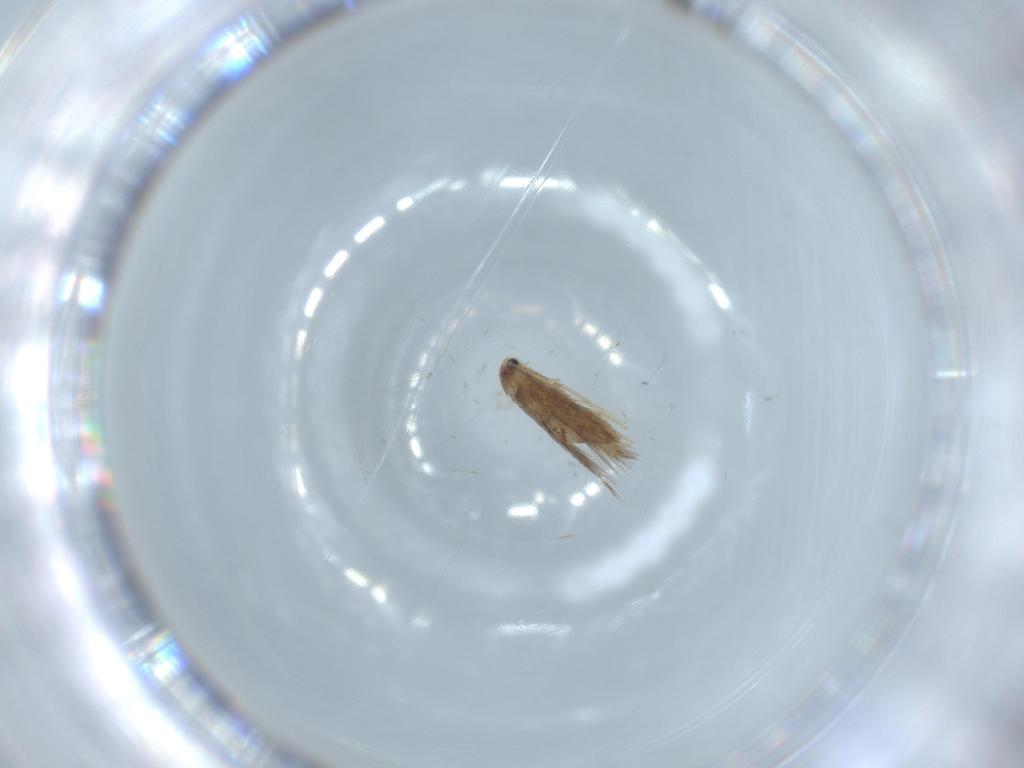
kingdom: Animalia
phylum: Arthropoda
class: Insecta
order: Lepidoptera
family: Nepticulidae
